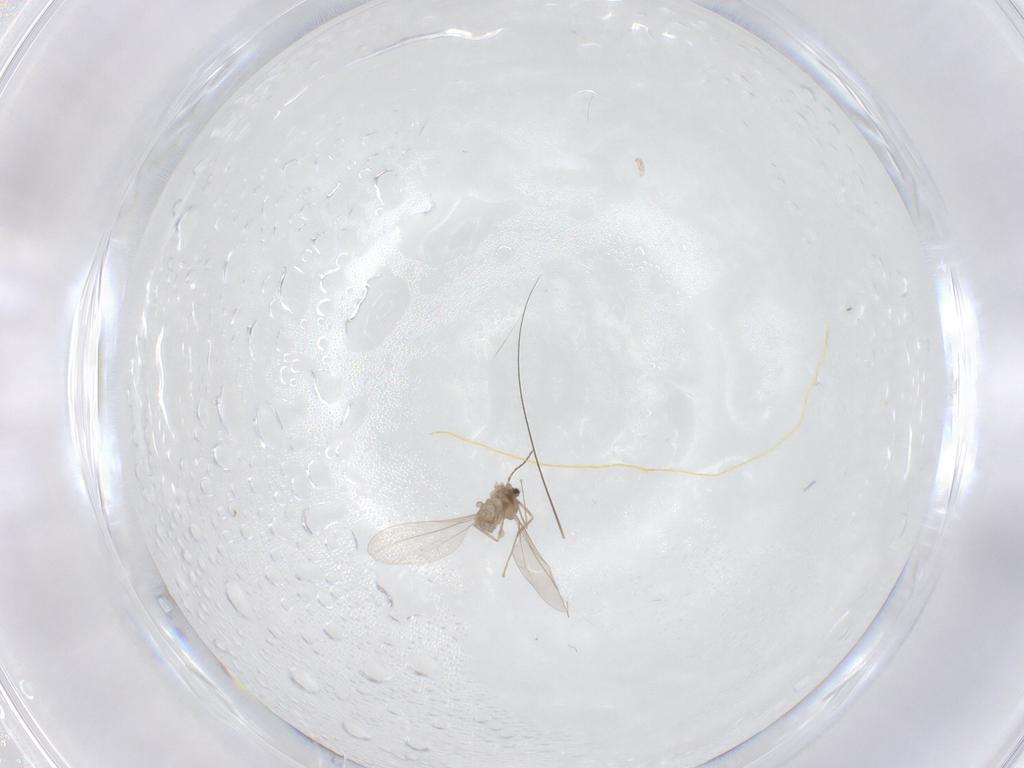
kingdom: Animalia
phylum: Arthropoda
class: Insecta
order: Diptera
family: Cecidomyiidae
